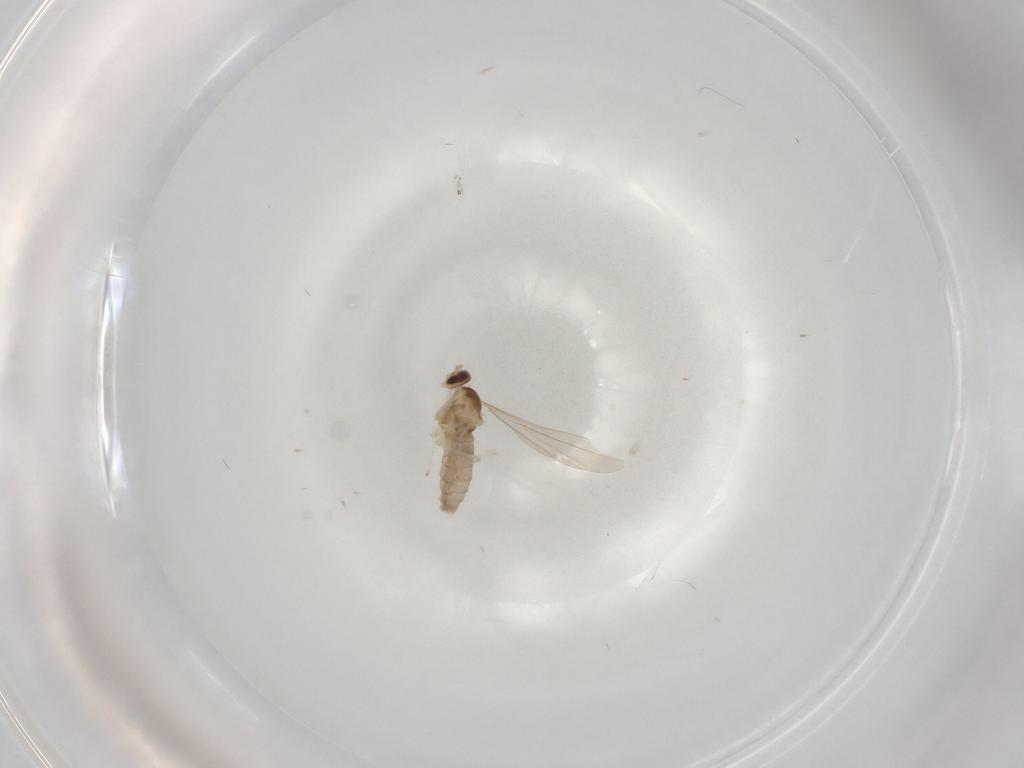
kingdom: Animalia
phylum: Arthropoda
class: Insecta
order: Diptera
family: Cecidomyiidae
